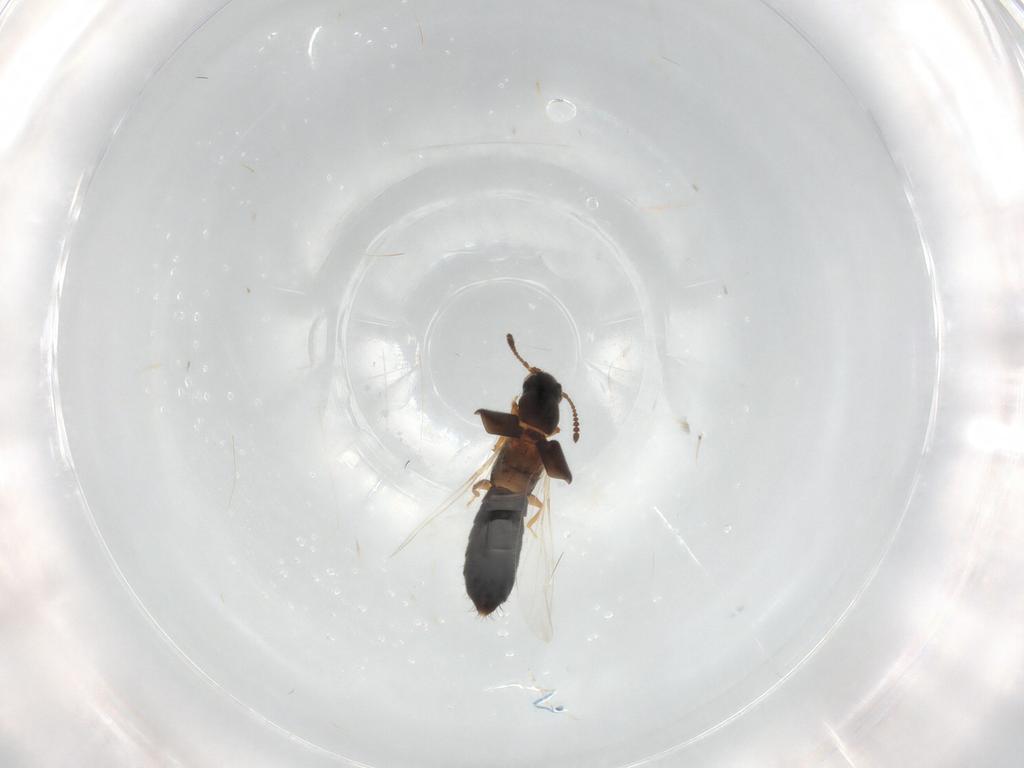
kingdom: Animalia
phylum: Arthropoda
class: Insecta
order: Coleoptera
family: Staphylinidae
